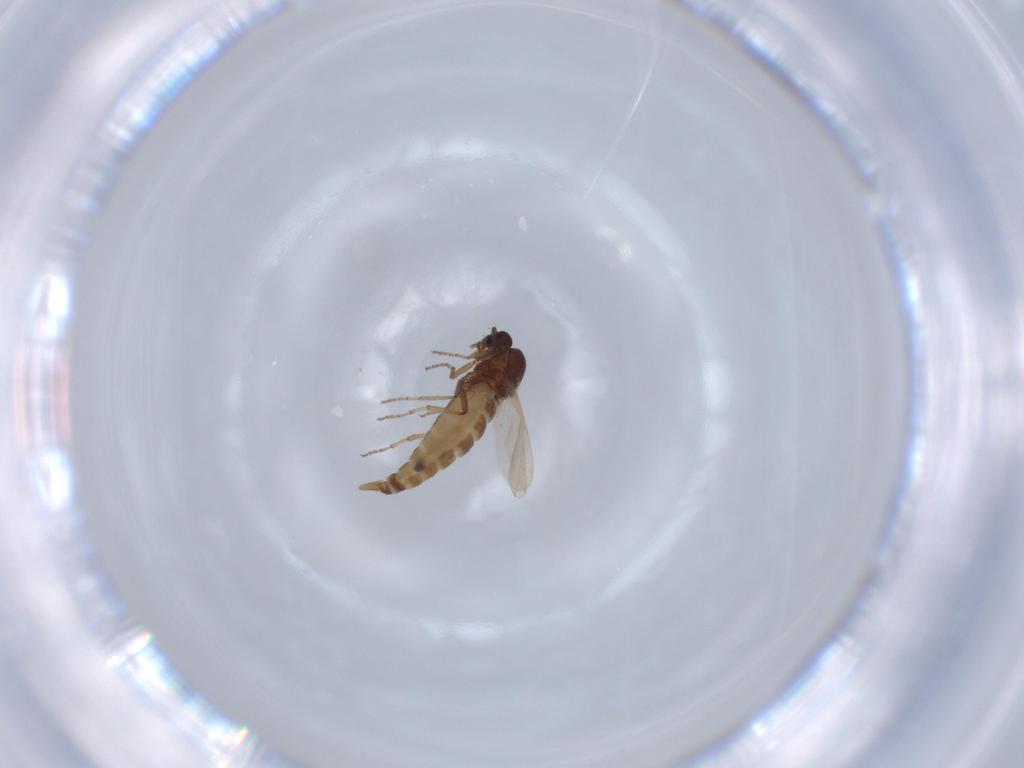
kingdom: Animalia
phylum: Arthropoda
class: Insecta
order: Diptera
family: Ceratopogonidae
